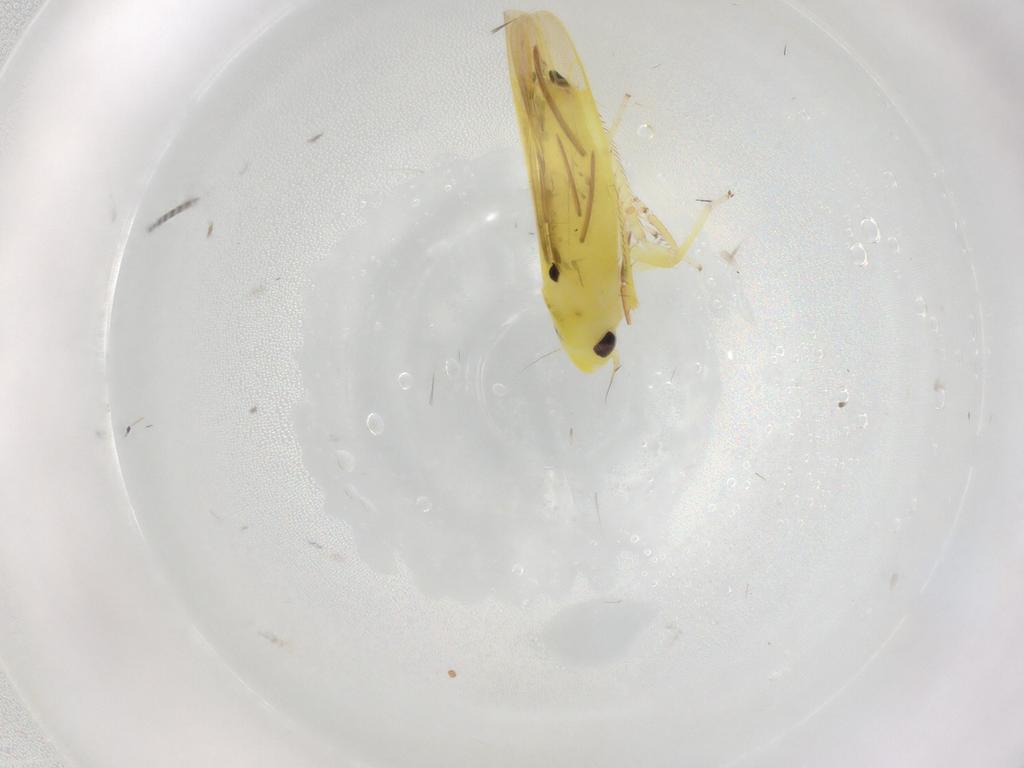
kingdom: Animalia
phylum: Arthropoda
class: Insecta
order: Hemiptera
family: Cicadellidae
